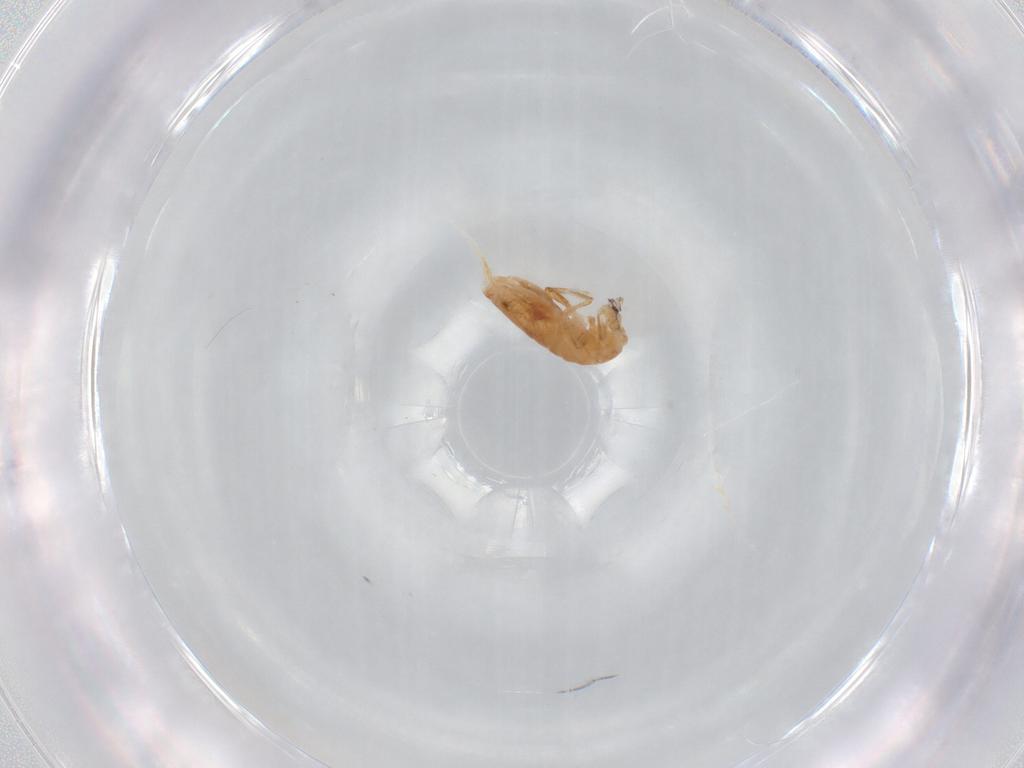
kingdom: Animalia
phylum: Arthropoda
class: Collembola
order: Entomobryomorpha
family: Entomobryidae
